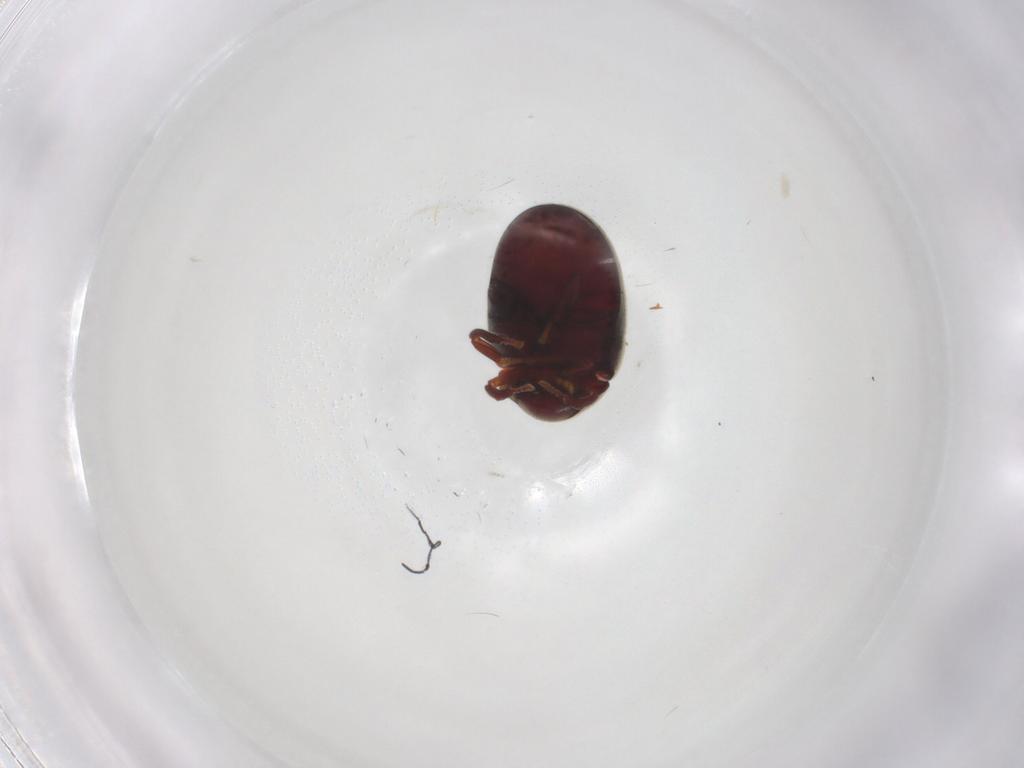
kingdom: Animalia
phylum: Arthropoda
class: Insecta
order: Coleoptera
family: Ptinidae
